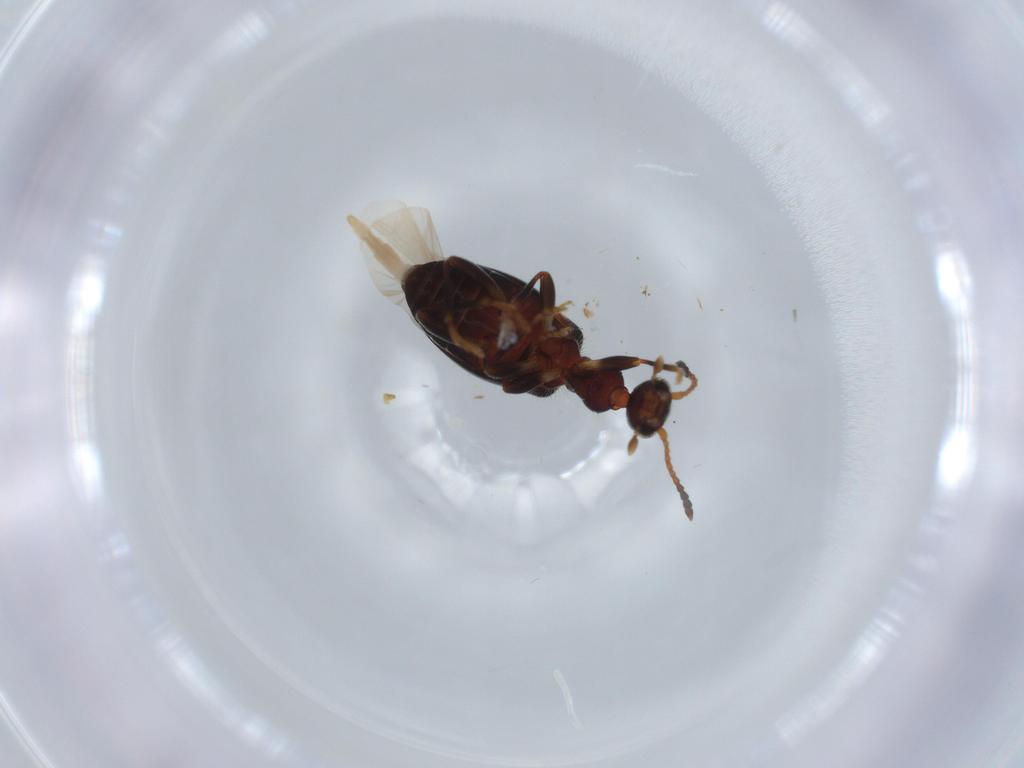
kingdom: Animalia
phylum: Arthropoda
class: Insecta
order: Coleoptera
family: Anthicidae
